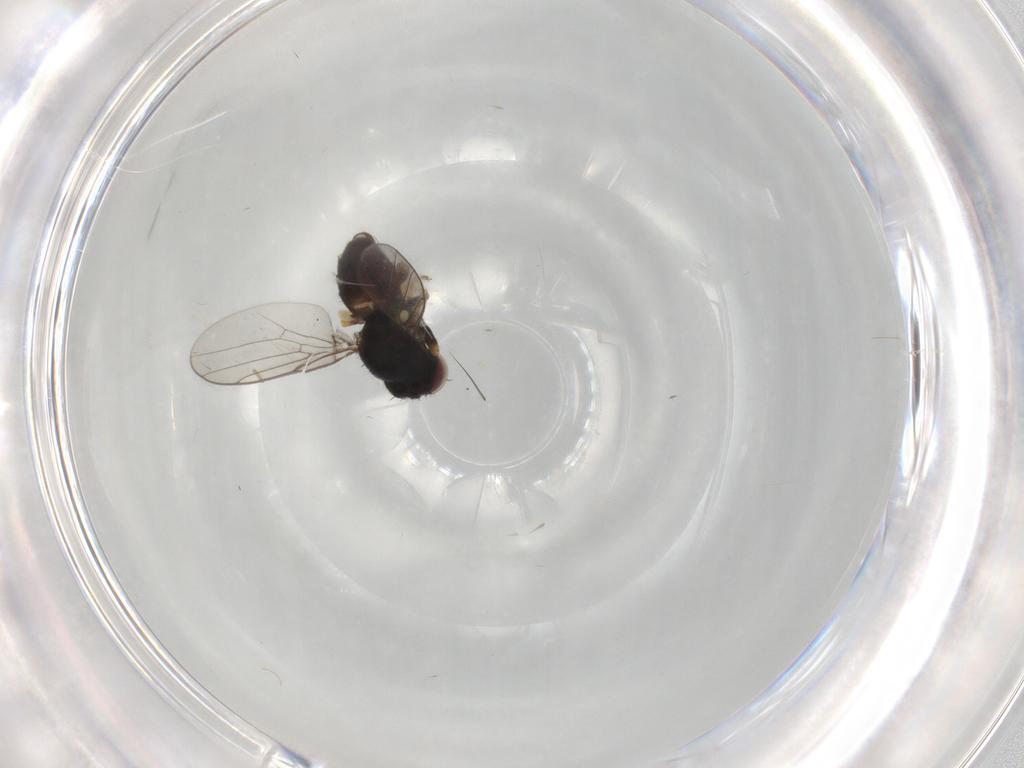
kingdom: Animalia
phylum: Arthropoda
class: Insecta
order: Diptera
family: Chloropidae
